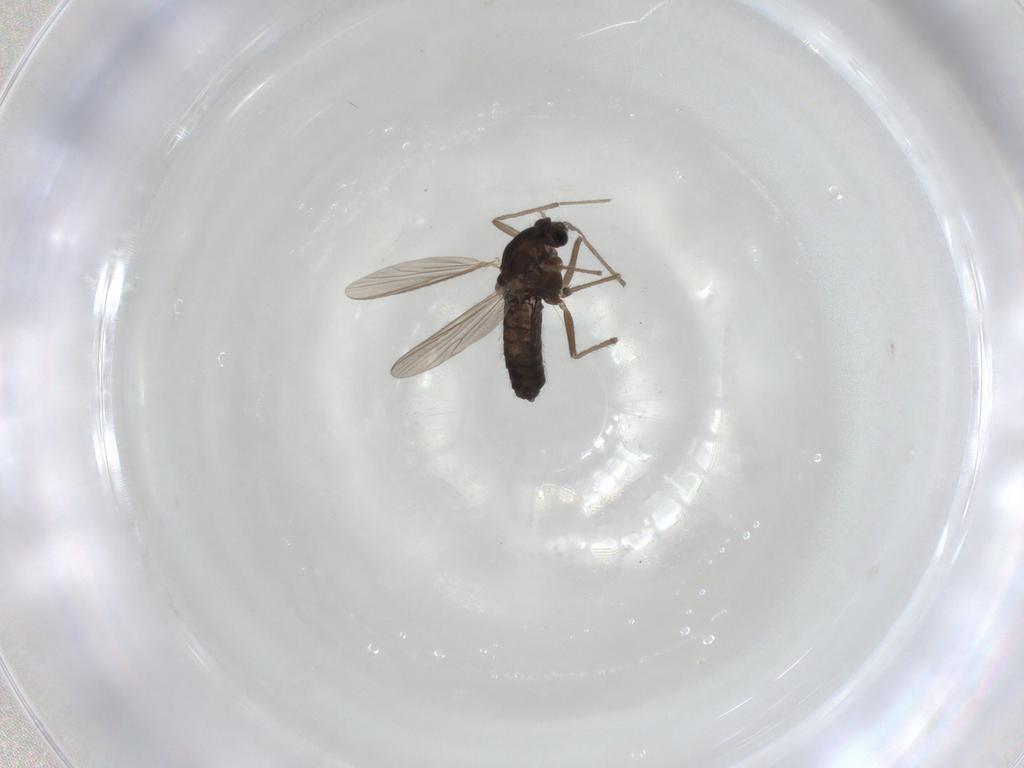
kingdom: Animalia
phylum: Arthropoda
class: Insecta
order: Diptera
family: Chironomidae
